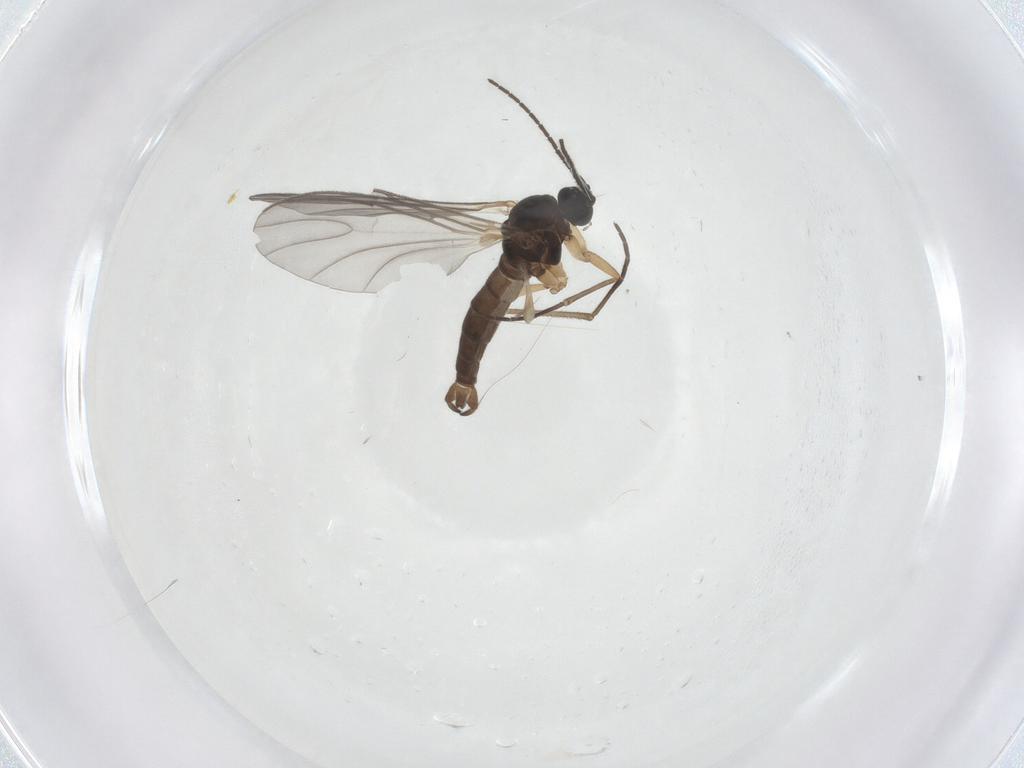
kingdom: Animalia
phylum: Arthropoda
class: Insecta
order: Diptera
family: Sciaridae
